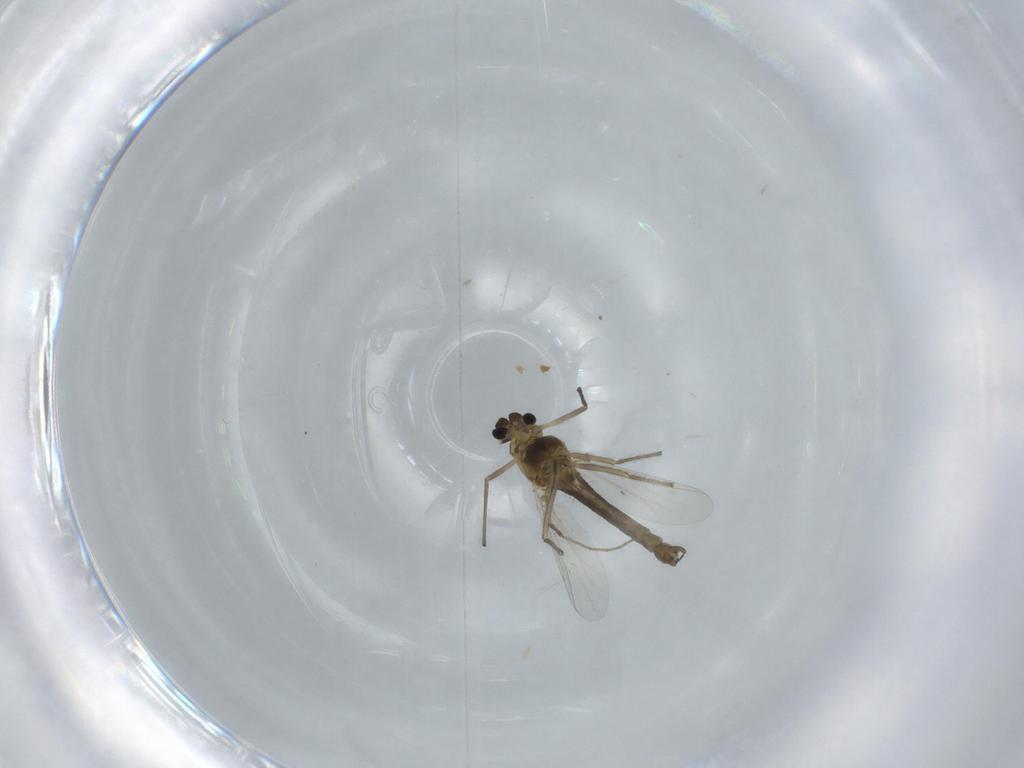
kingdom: Animalia
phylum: Arthropoda
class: Insecta
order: Diptera
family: Chironomidae
